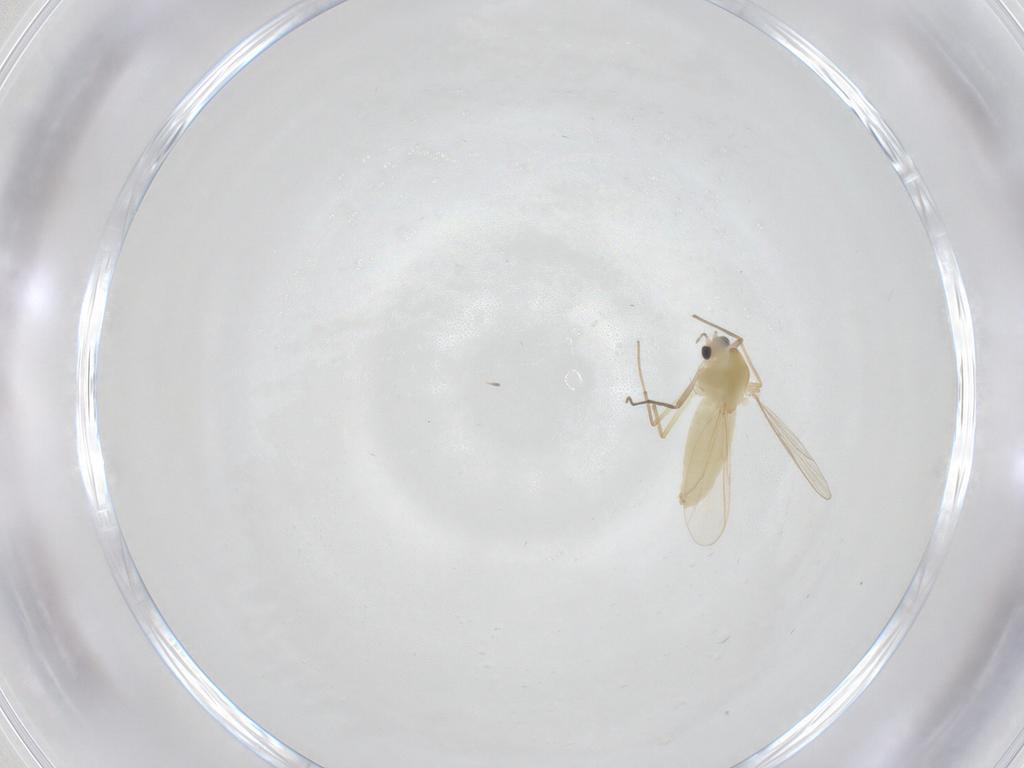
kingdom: Animalia
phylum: Arthropoda
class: Insecta
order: Diptera
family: Chironomidae
